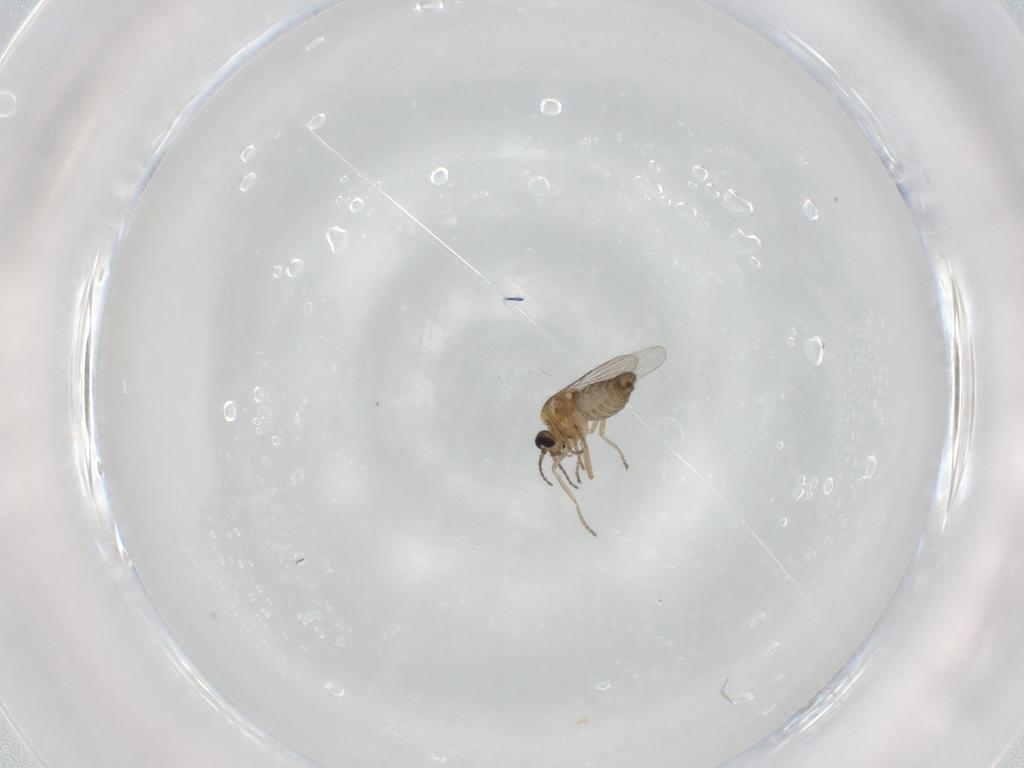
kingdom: Animalia
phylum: Arthropoda
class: Insecta
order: Diptera
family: Ceratopogonidae
